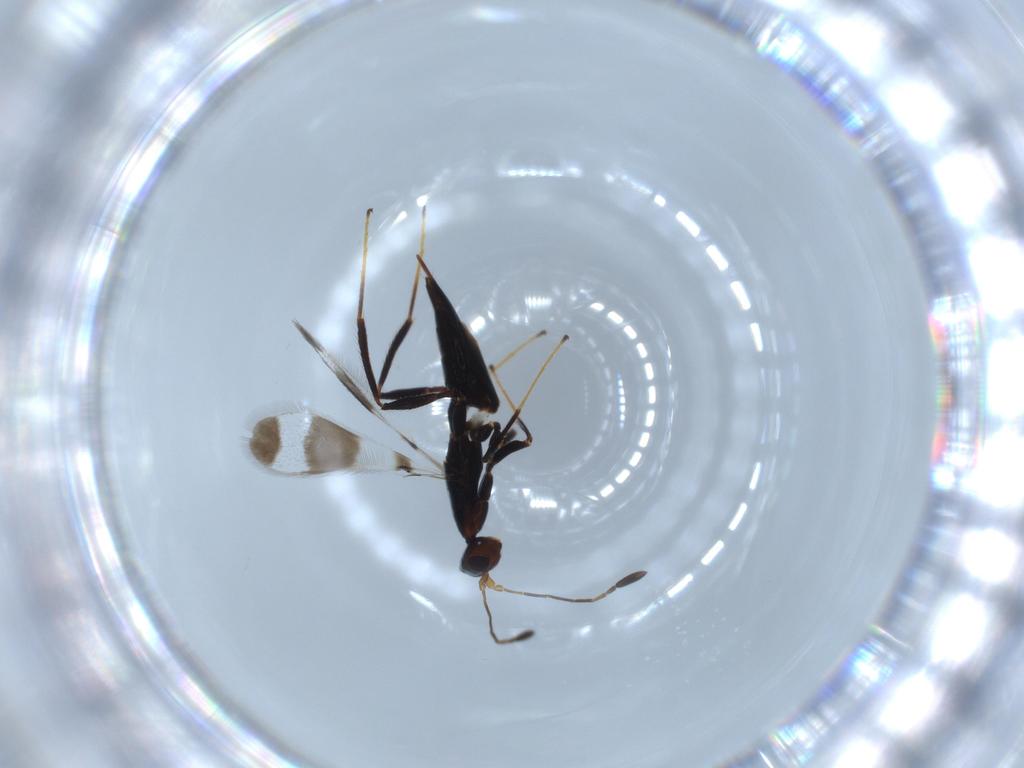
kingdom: Animalia
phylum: Arthropoda
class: Insecta
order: Hymenoptera
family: Mymaridae
